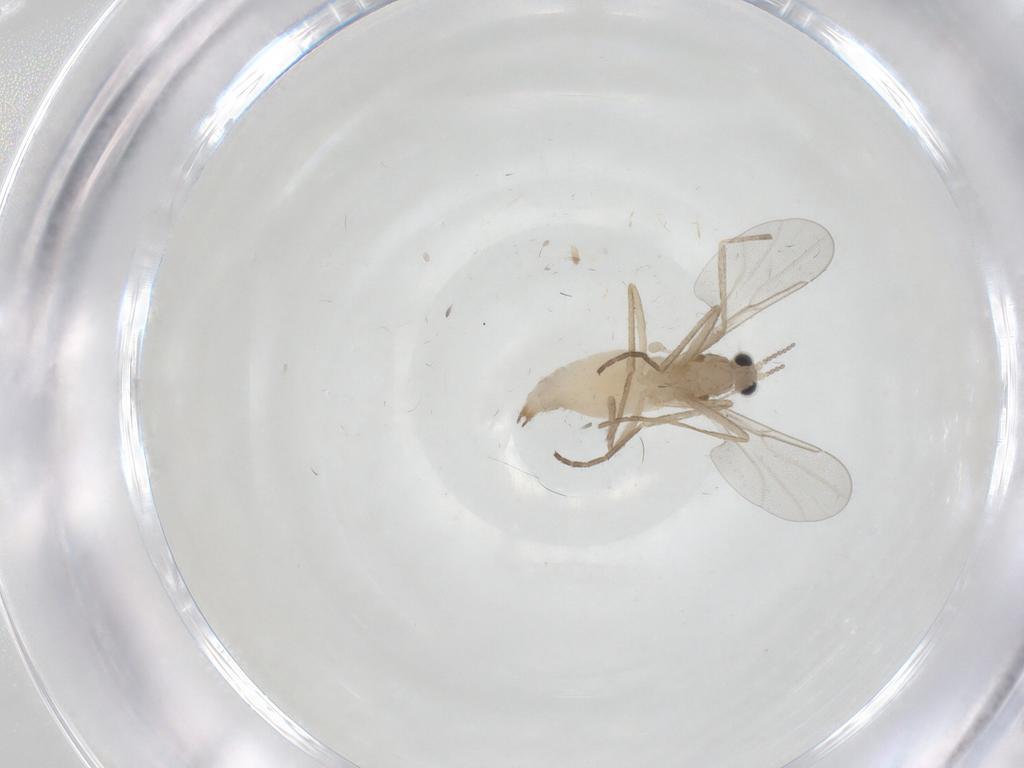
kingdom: Animalia
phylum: Arthropoda
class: Insecta
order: Diptera
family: Cecidomyiidae
